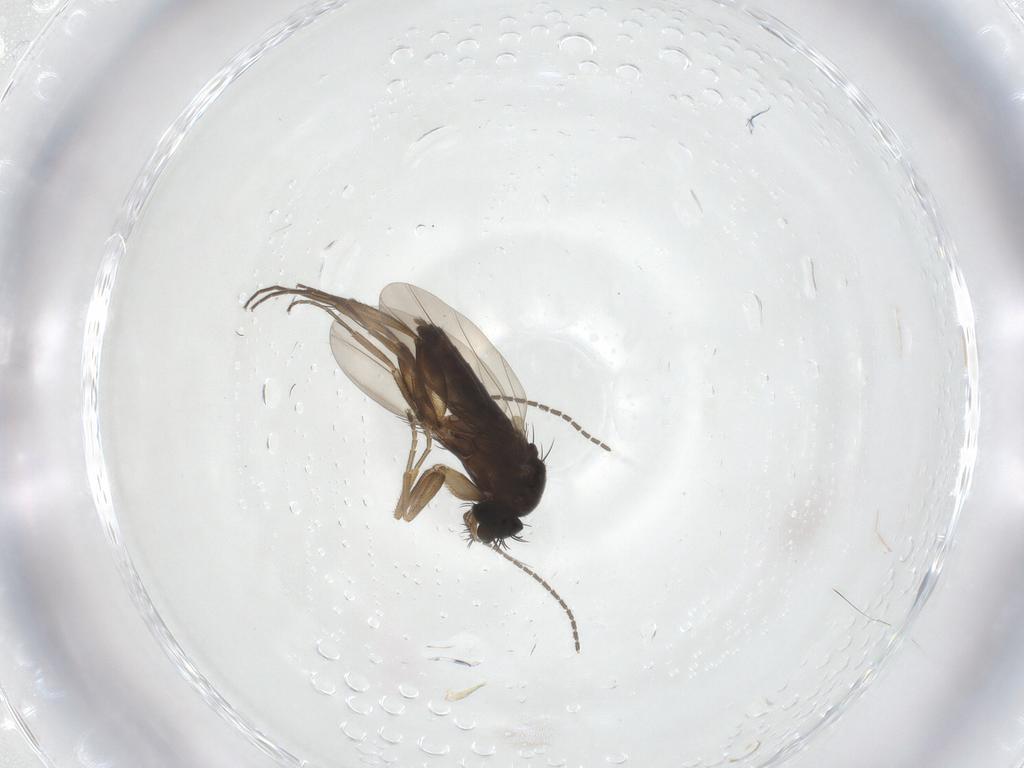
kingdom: Animalia
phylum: Arthropoda
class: Insecta
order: Diptera
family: Phoridae
